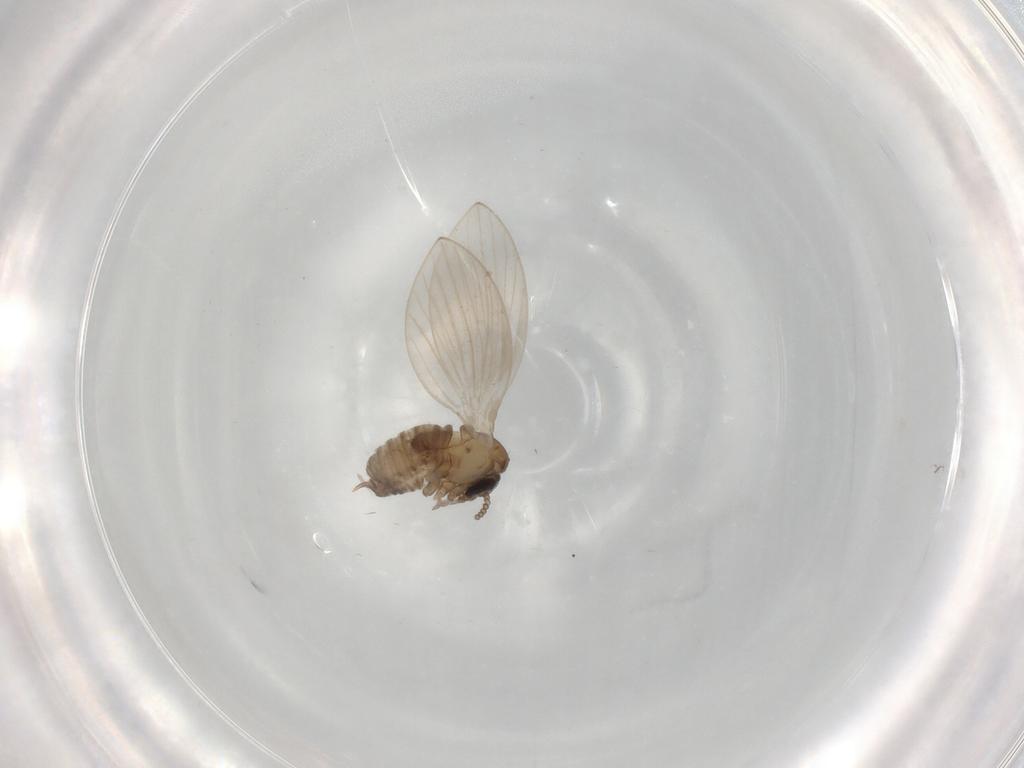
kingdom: Animalia
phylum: Arthropoda
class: Insecta
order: Diptera
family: Psychodidae
